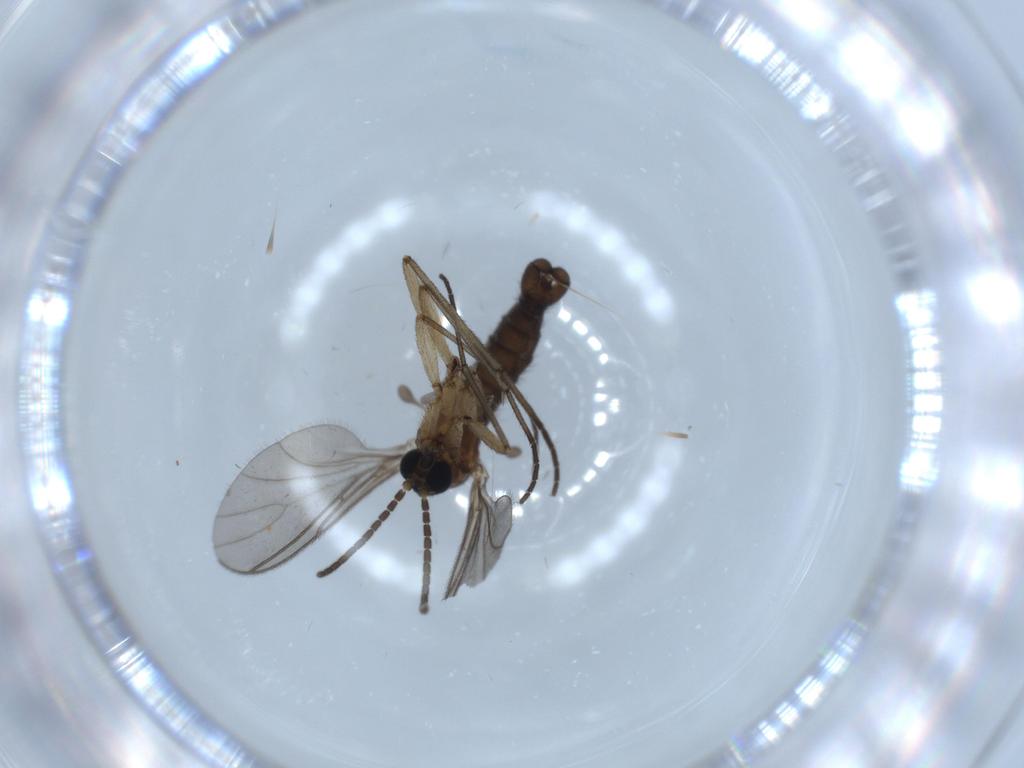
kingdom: Animalia
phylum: Arthropoda
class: Insecta
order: Diptera
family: Sciaridae
